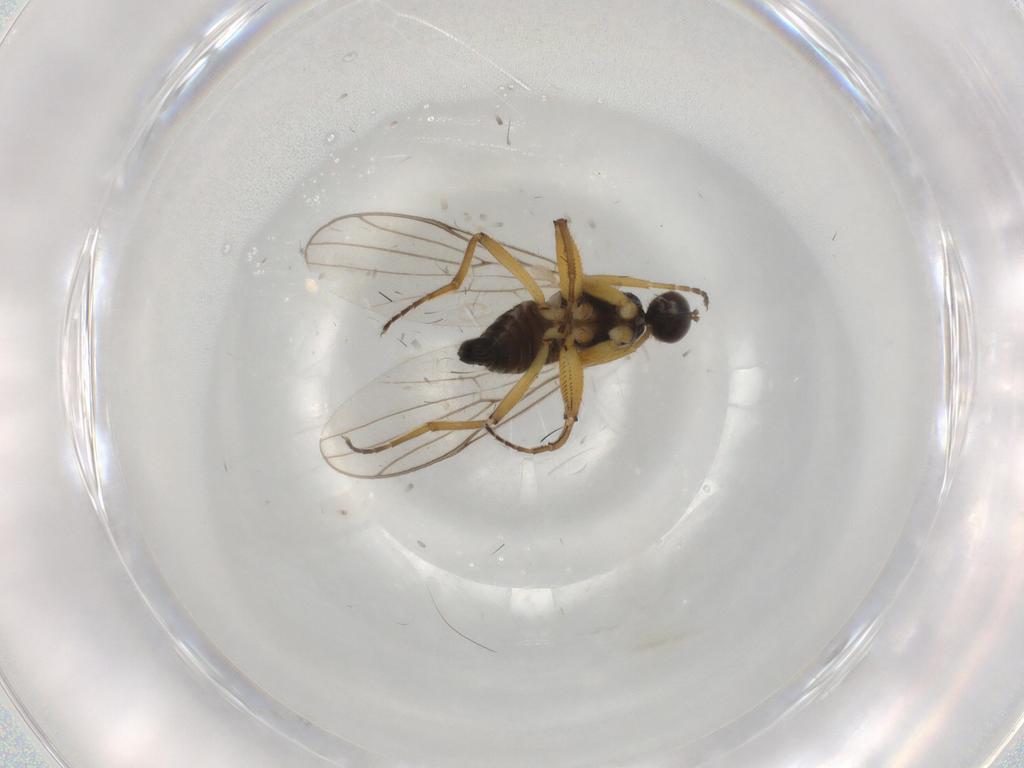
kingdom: Animalia
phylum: Arthropoda
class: Insecta
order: Diptera
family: Hybotidae
